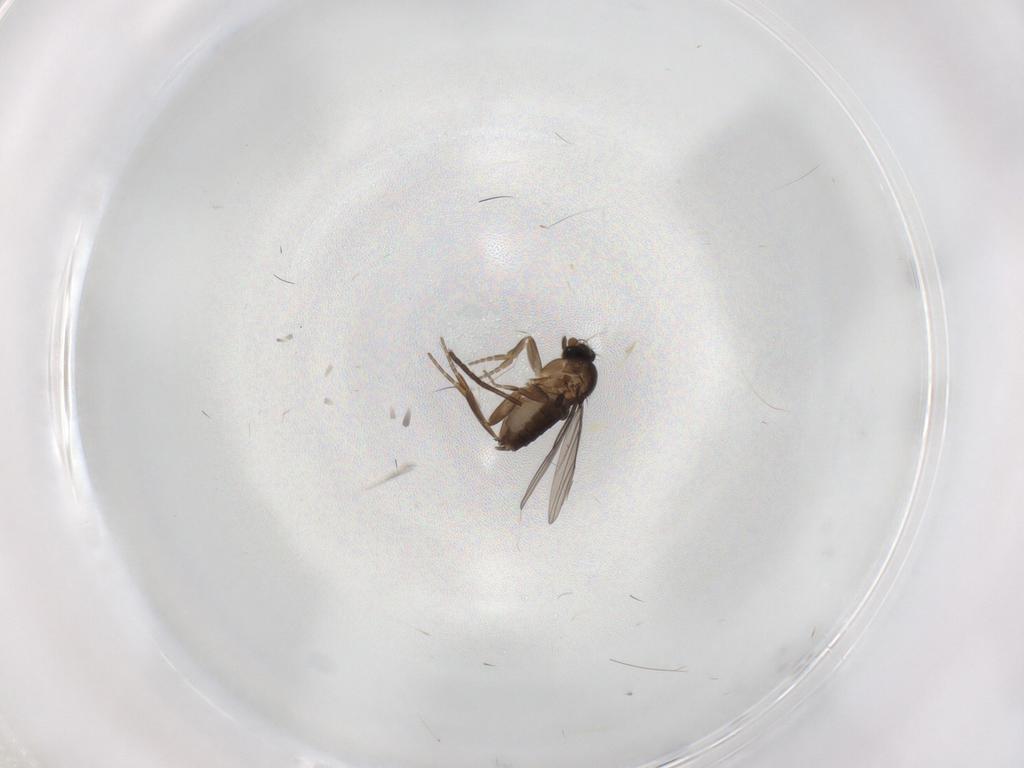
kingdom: Animalia
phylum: Arthropoda
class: Insecta
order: Diptera
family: Phoridae
